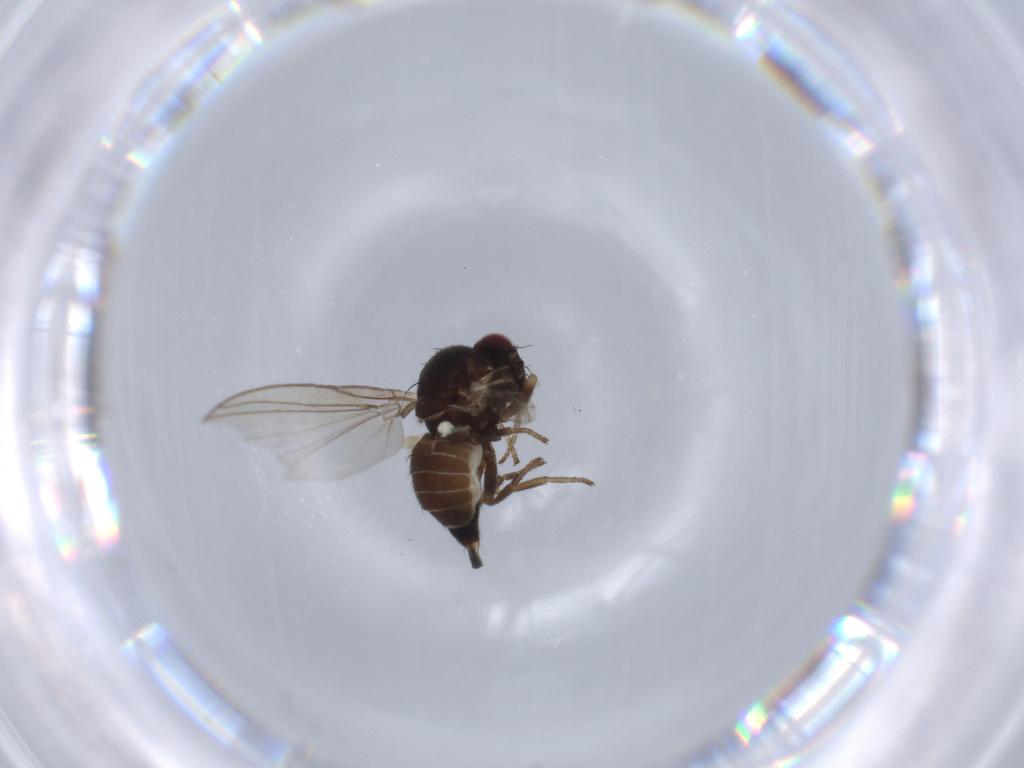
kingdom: Animalia
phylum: Arthropoda
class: Insecta
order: Diptera
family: Agromyzidae
